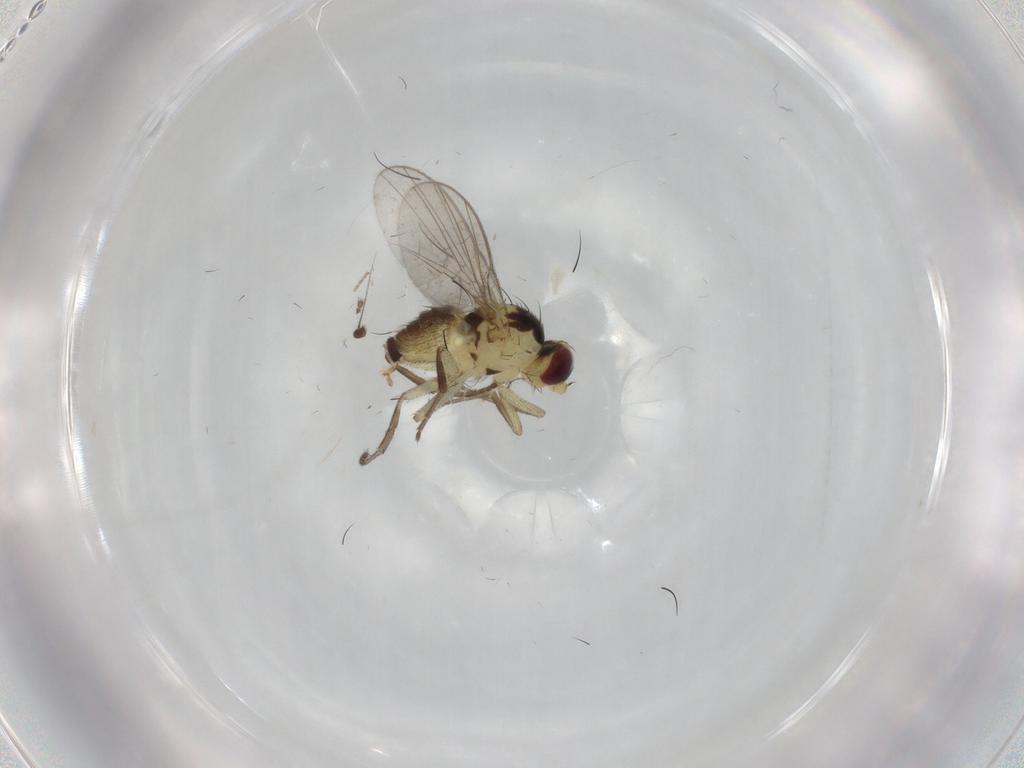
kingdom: Animalia
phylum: Arthropoda
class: Insecta
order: Diptera
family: Agromyzidae
